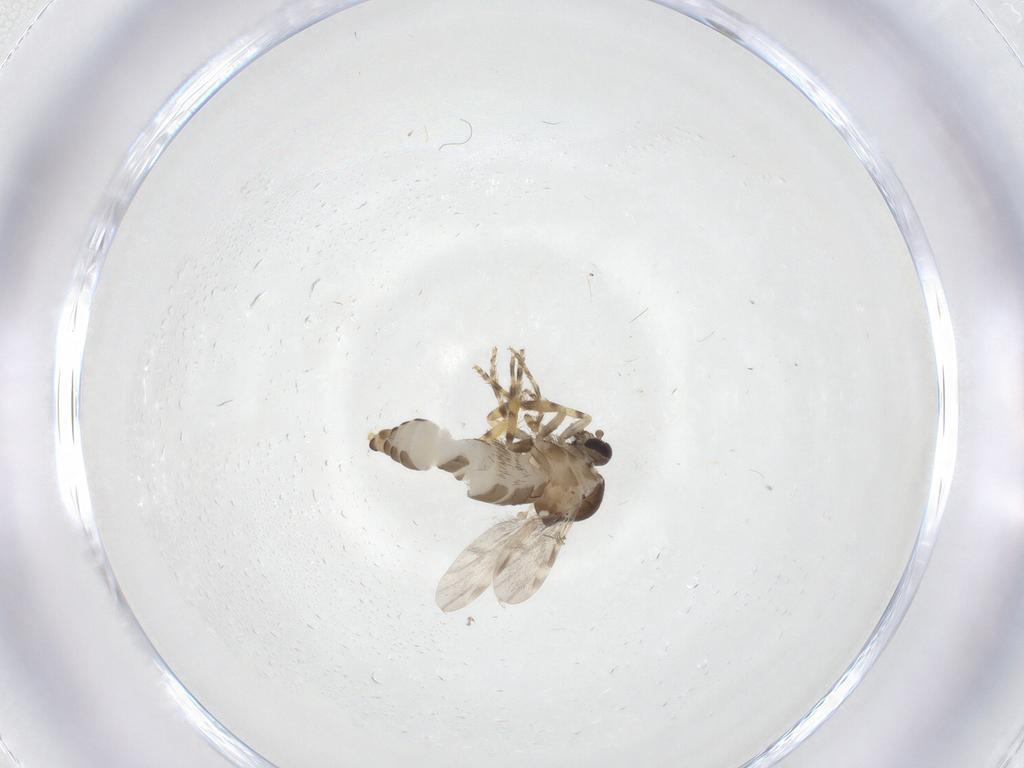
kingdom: Animalia
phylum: Arthropoda
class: Insecta
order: Diptera
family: Ceratopogonidae
